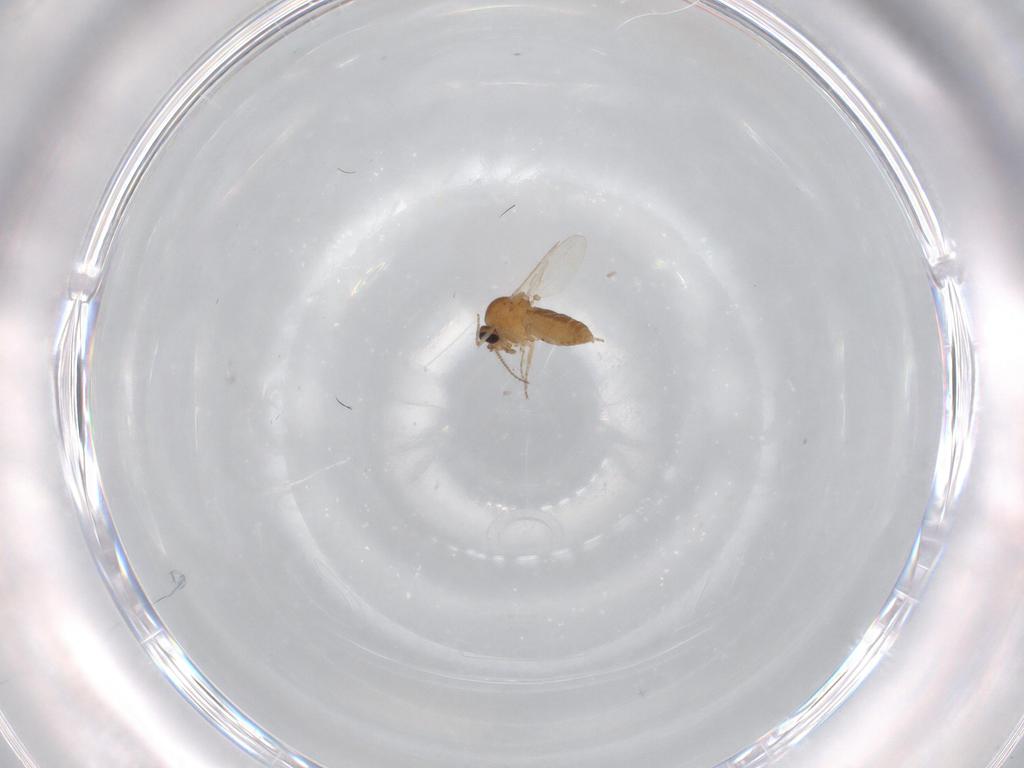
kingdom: Animalia
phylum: Arthropoda
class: Insecta
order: Diptera
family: Ceratopogonidae
